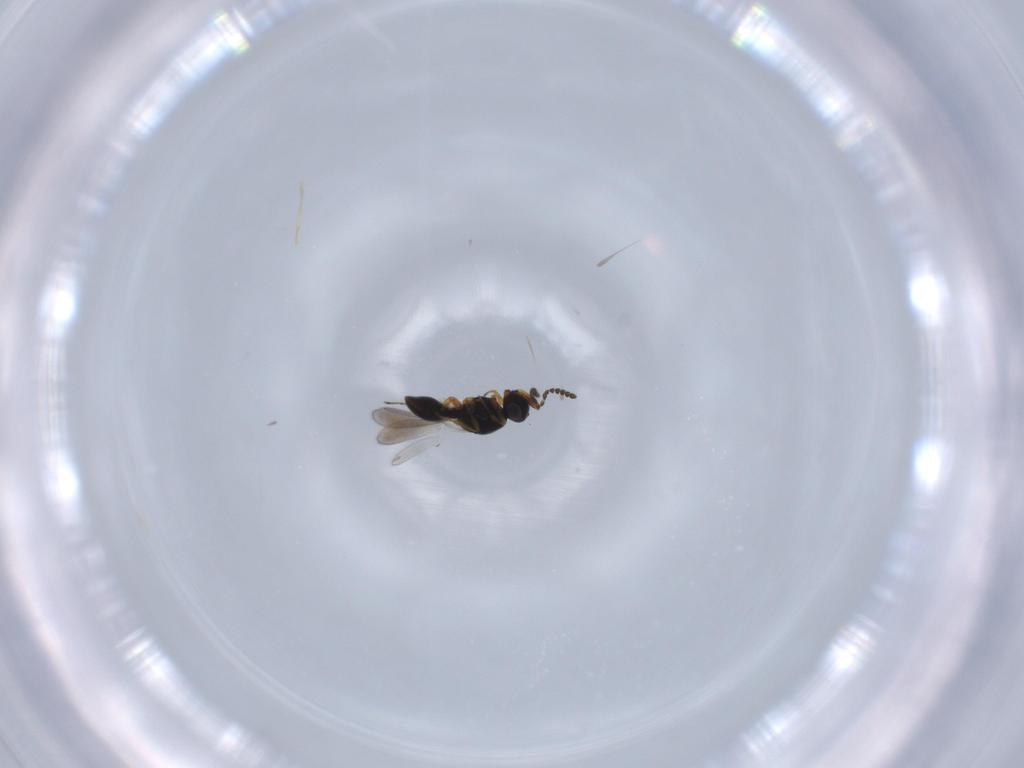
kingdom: Animalia
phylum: Arthropoda
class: Insecta
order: Hymenoptera
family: Platygastridae
